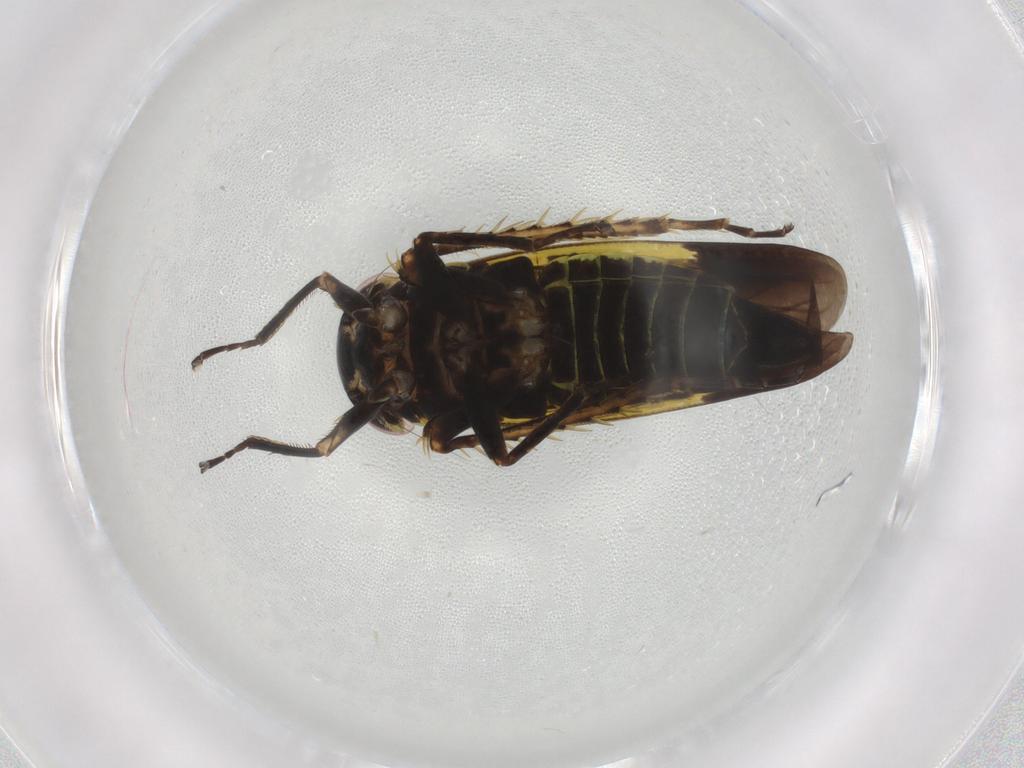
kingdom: Animalia
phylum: Arthropoda
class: Insecta
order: Hemiptera
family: Cicadellidae
